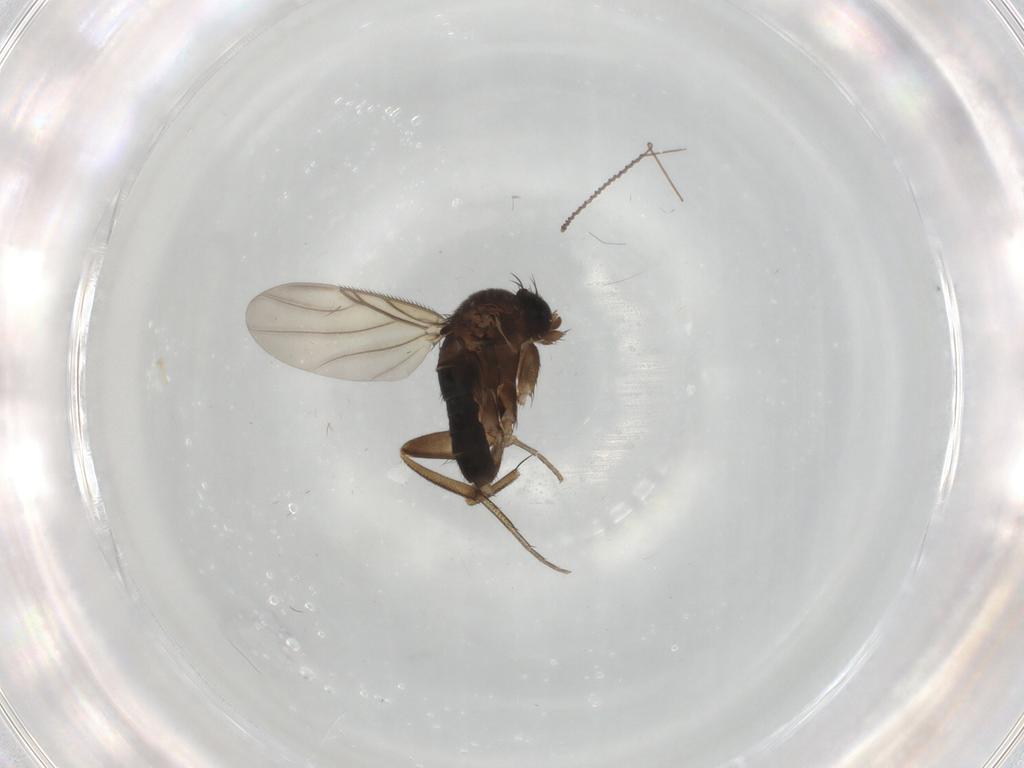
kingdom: Animalia
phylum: Arthropoda
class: Insecta
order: Diptera
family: Phoridae
